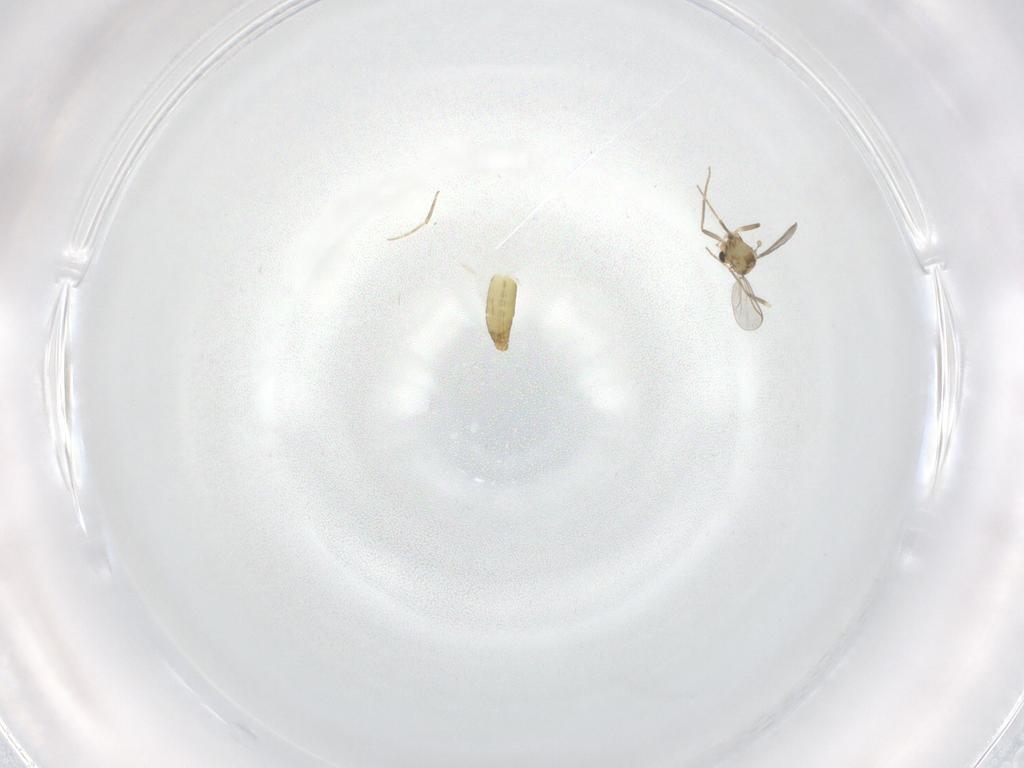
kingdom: Animalia
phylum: Arthropoda
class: Insecta
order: Diptera
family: Chironomidae
